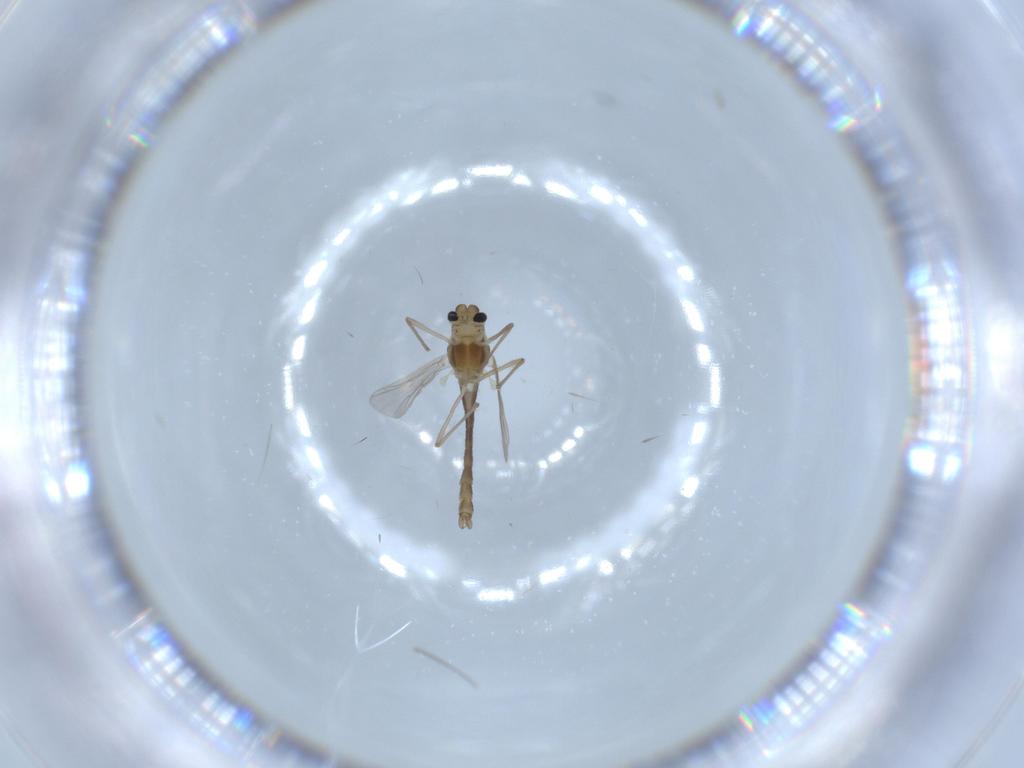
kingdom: Animalia
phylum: Arthropoda
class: Insecta
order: Diptera
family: Chironomidae
